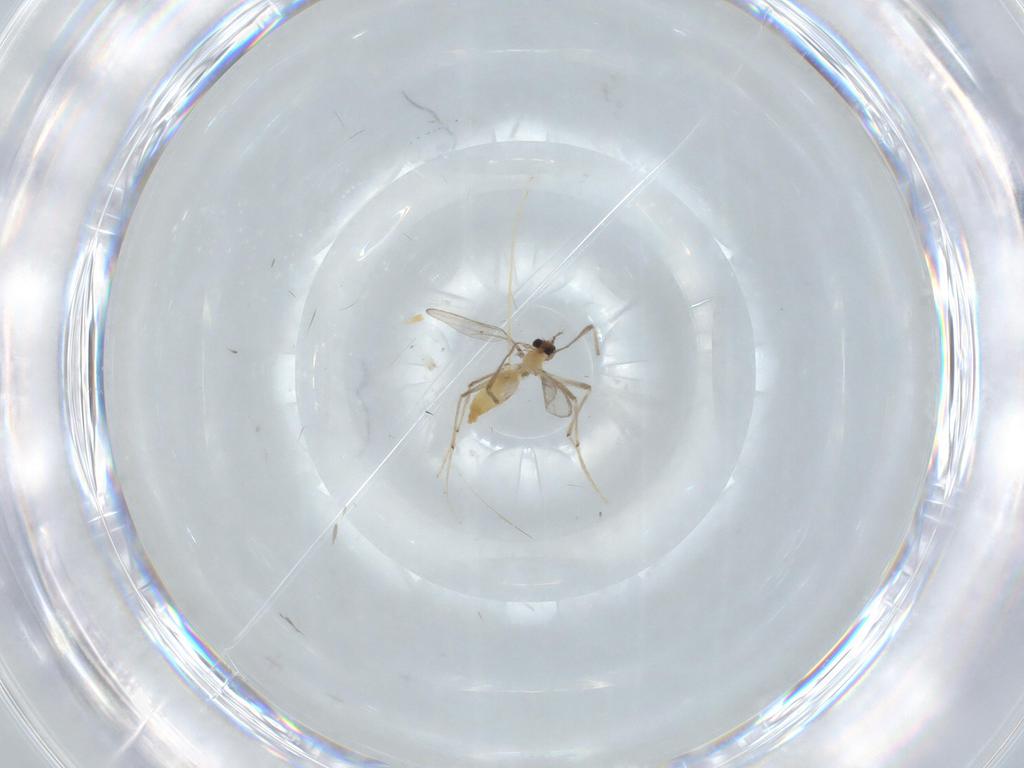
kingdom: Animalia
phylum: Arthropoda
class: Insecta
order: Diptera
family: Chironomidae
